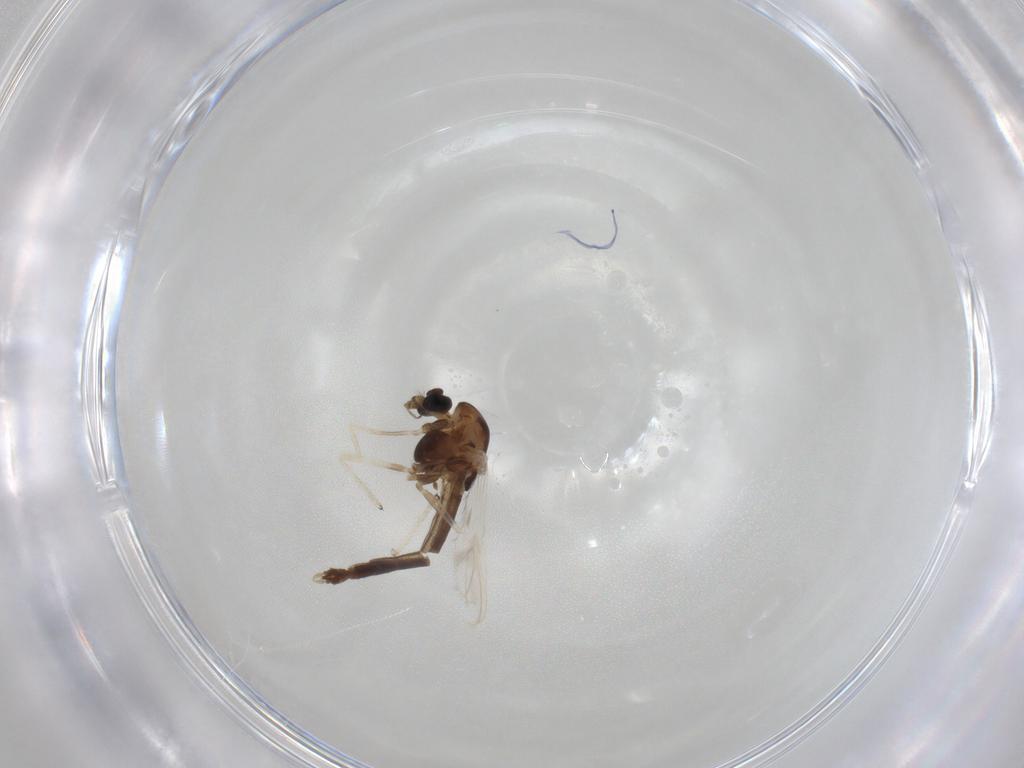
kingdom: Animalia
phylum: Arthropoda
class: Insecta
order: Diptera
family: Chironomidae
